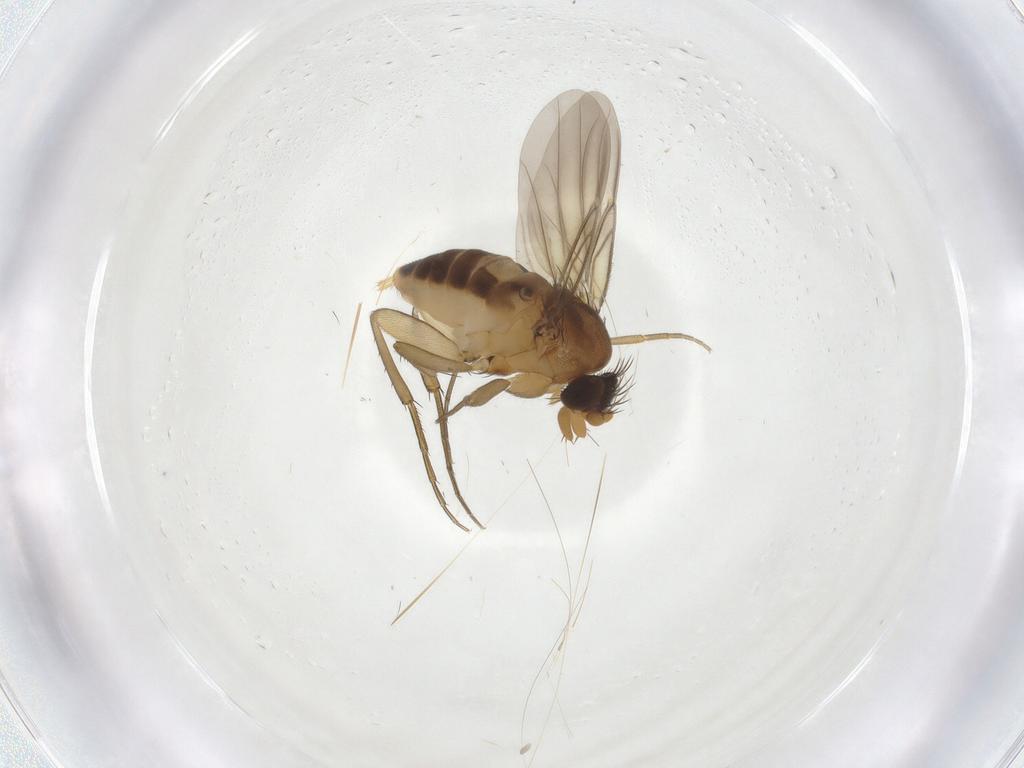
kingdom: Animalia
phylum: Arthropoda
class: Insecta
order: Diptera
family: Phoridae
